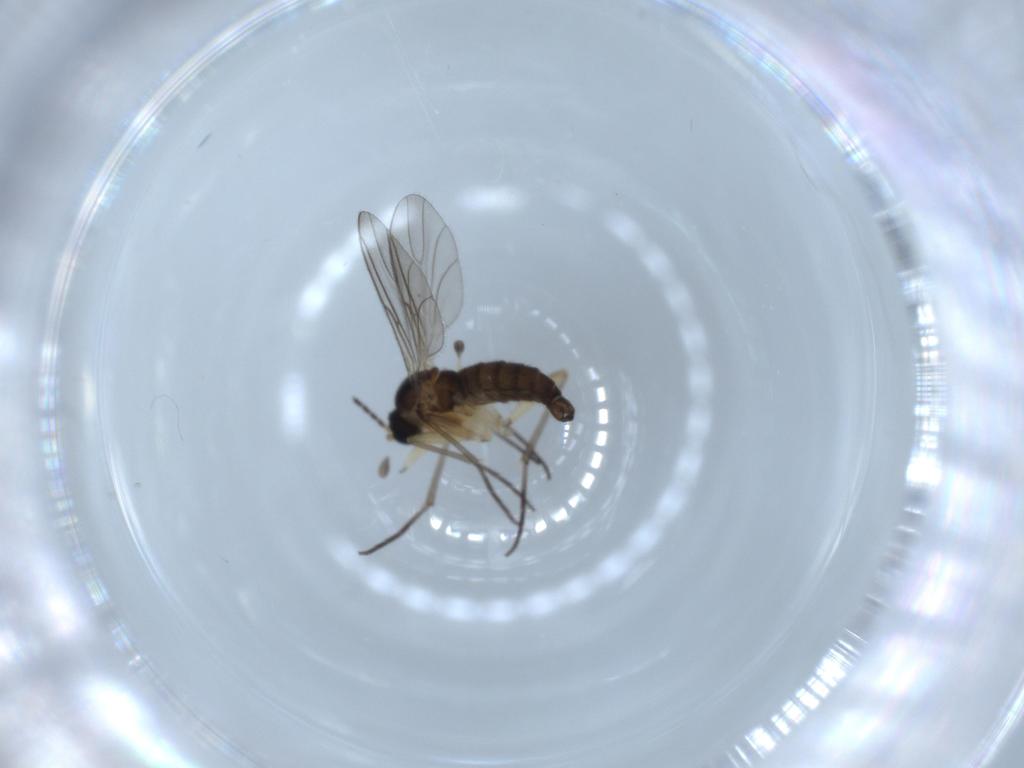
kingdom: Animalia
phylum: Arthropoda
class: Insecta
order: Diptera
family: Sciaridae
